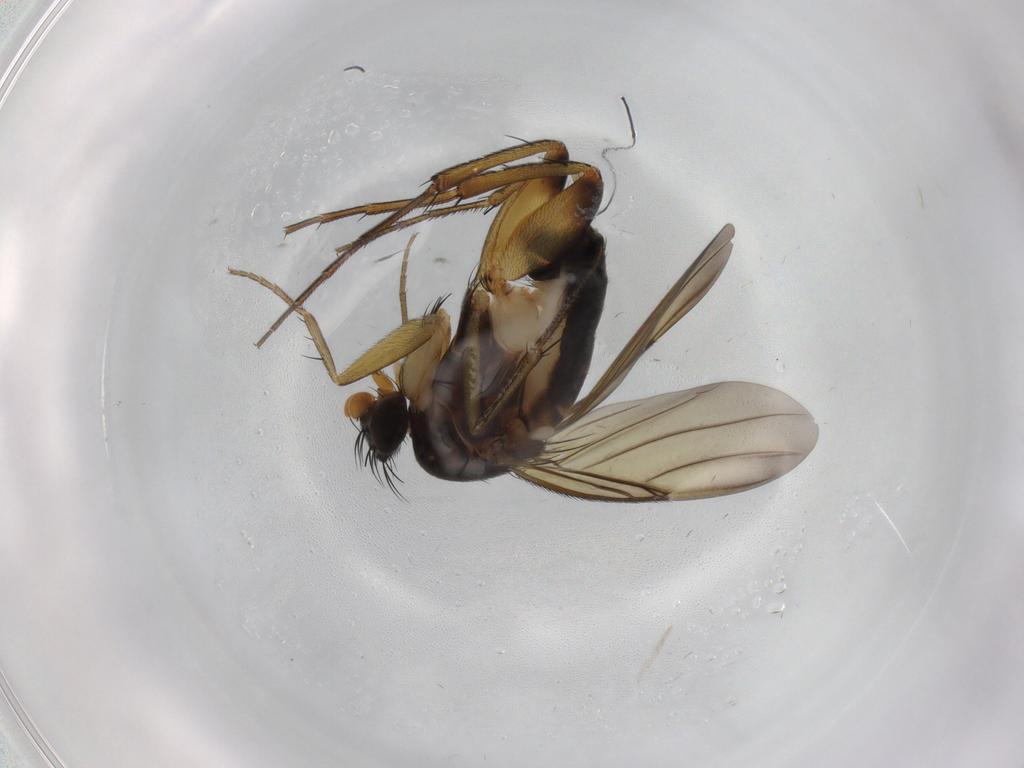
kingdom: Animalia
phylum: Arthropoda
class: Insecta
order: Diptera
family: Phoridae
